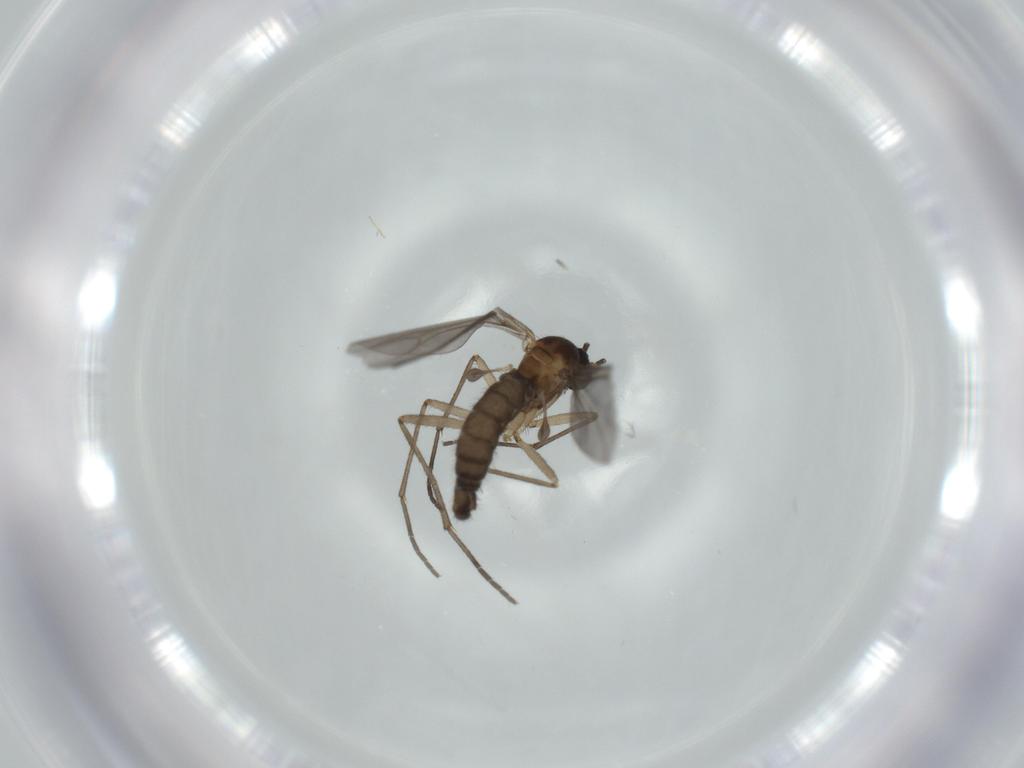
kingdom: Animalia
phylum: Arthropoda
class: Insecta
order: Diptera
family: Sciaridae
